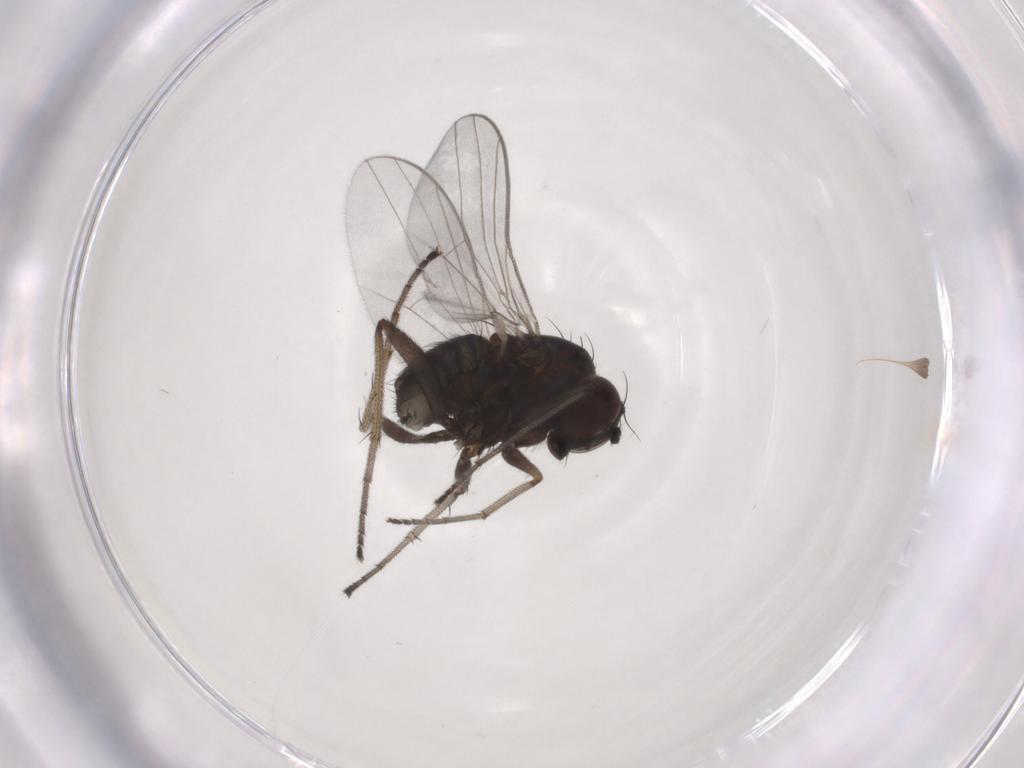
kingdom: Animalia
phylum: Arthropoda
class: Insecta
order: Diptera
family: Dolichopodidae
